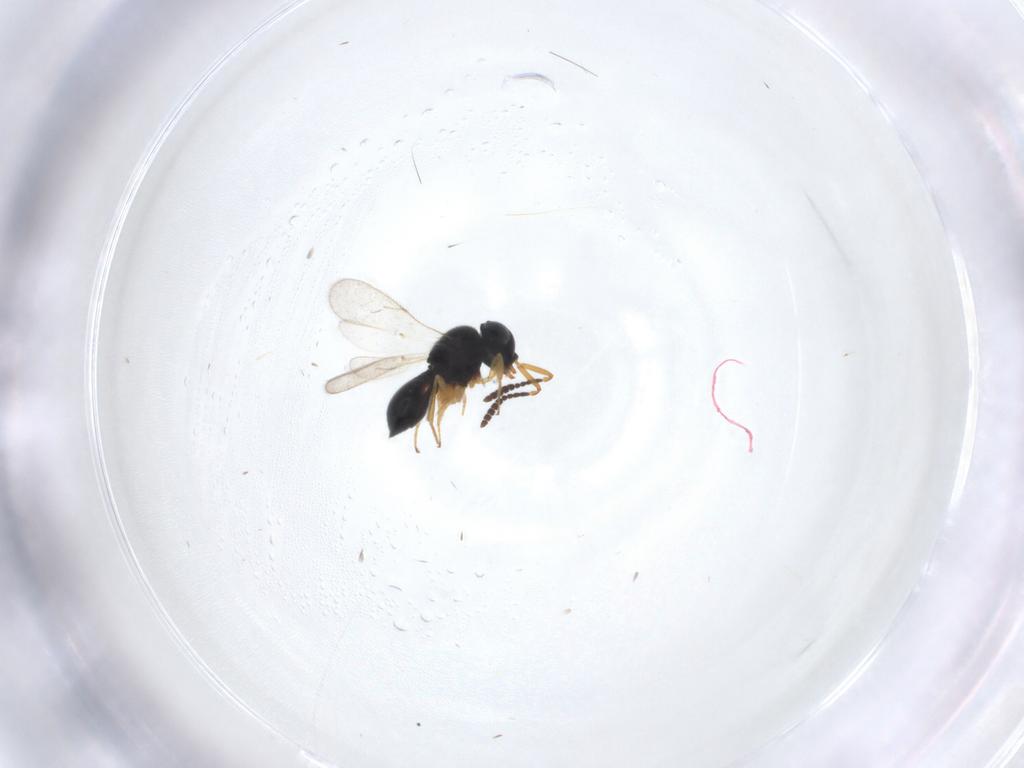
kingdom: Animalia
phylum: Arthropoda
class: Insecta
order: Hymenoptera
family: Scelionidae
